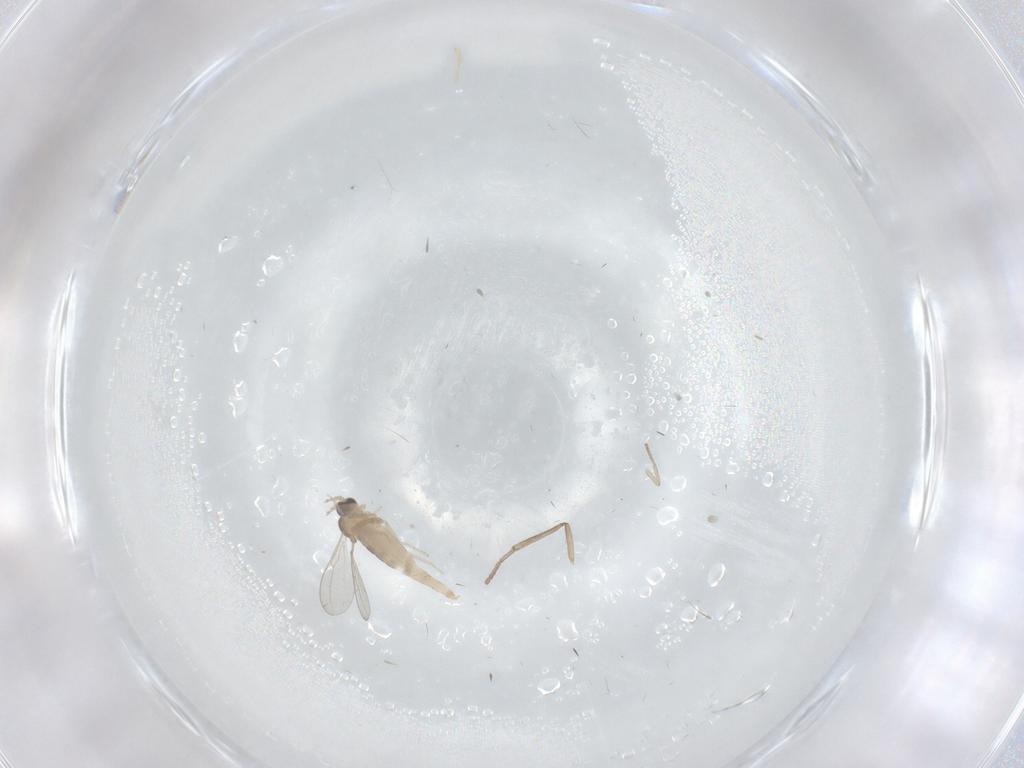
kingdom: Animalia
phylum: Arthropoda
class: Insecta
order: Diptera
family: Psychodidae
